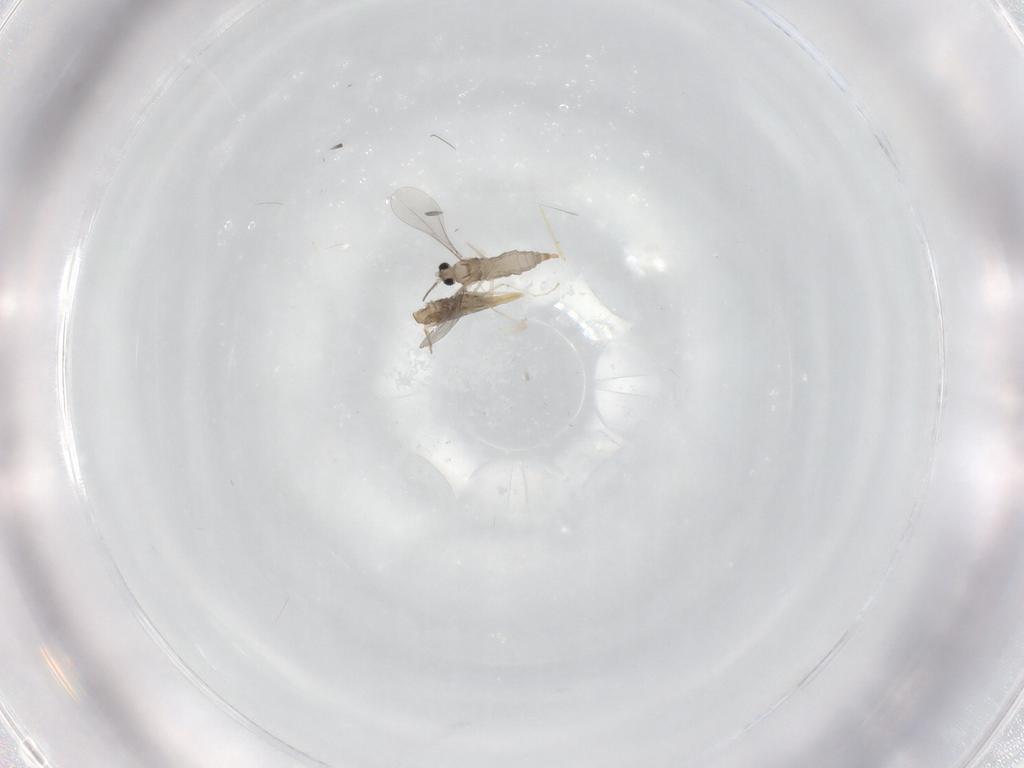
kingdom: Animalia
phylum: Arthropoda
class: Insecta
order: Diptera
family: Cecidomyiidae
